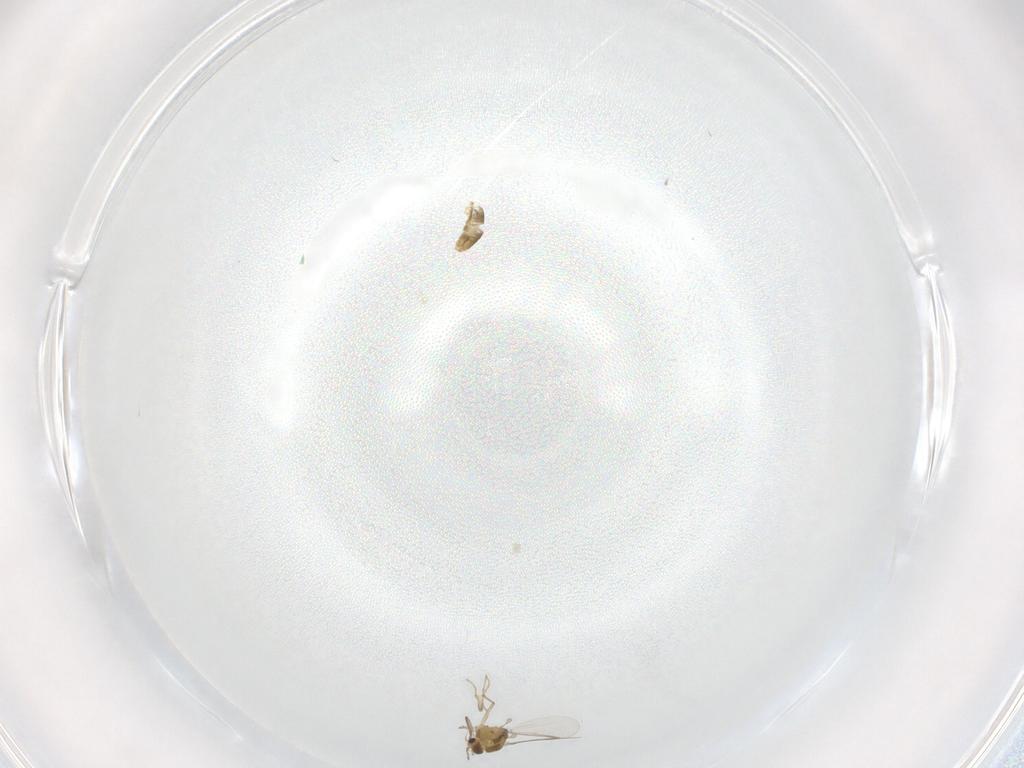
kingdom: Animalia
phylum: Arthropoda
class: Insecta
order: Diptera
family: Chironomidae
